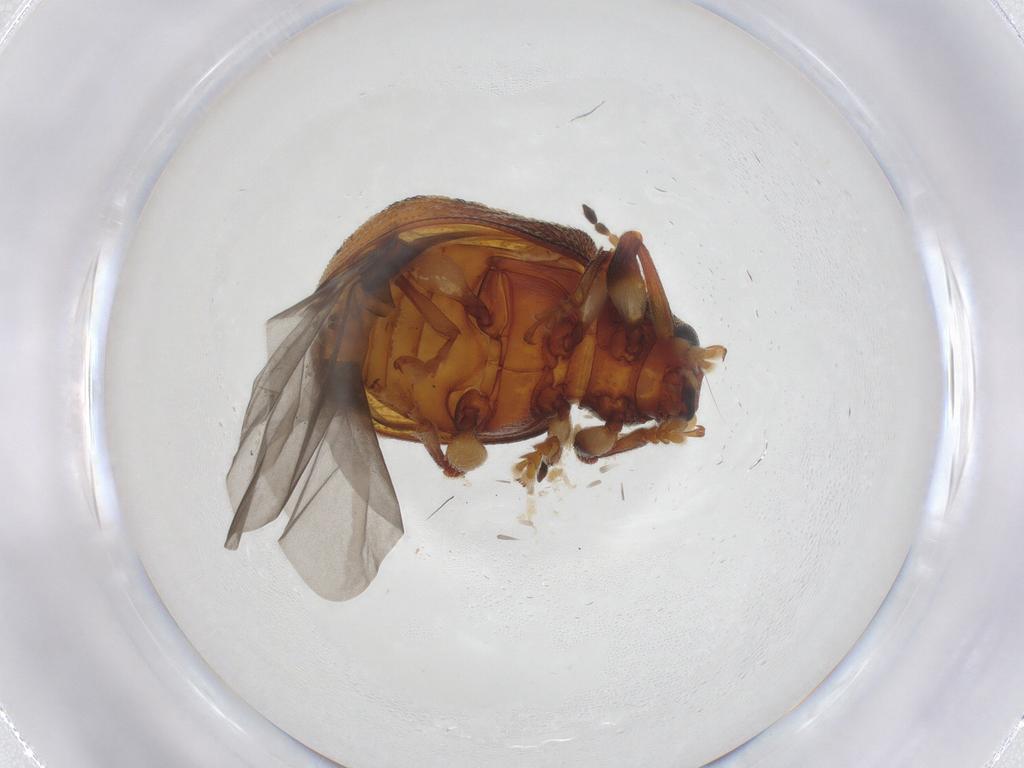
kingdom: Animalia
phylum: Arthropoda
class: Insecta
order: Coleoptera
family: Chrysomelidae
